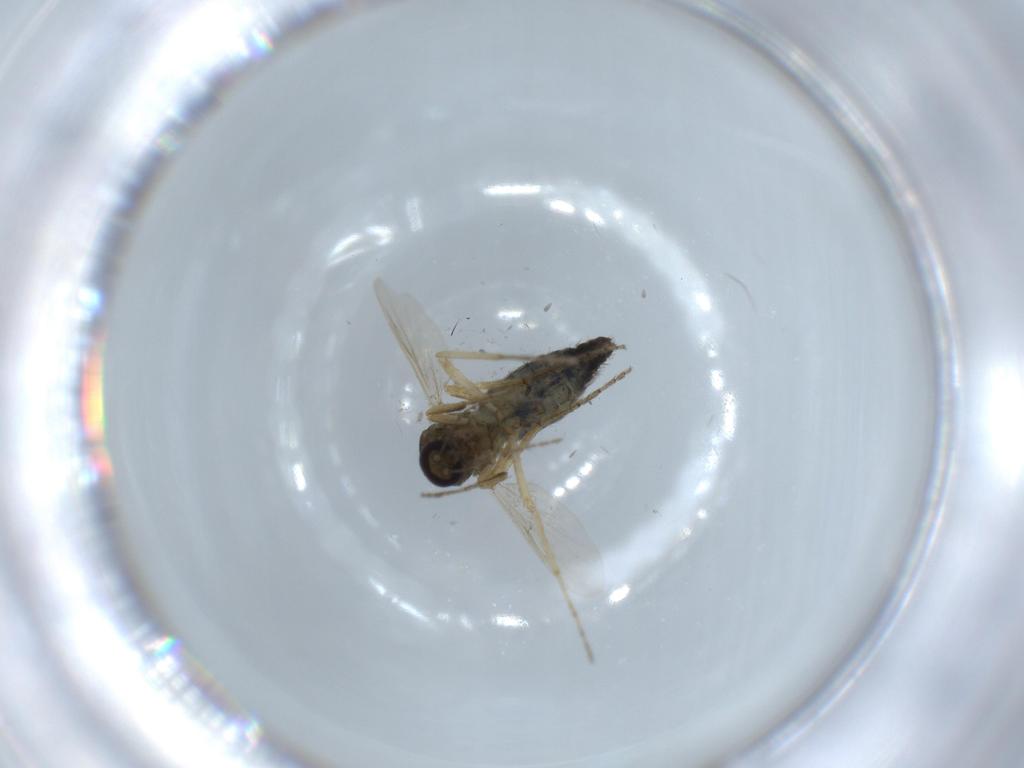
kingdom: Animalia
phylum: Arthropoda
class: Insecta
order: Diptera
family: Ceratopogonidae
